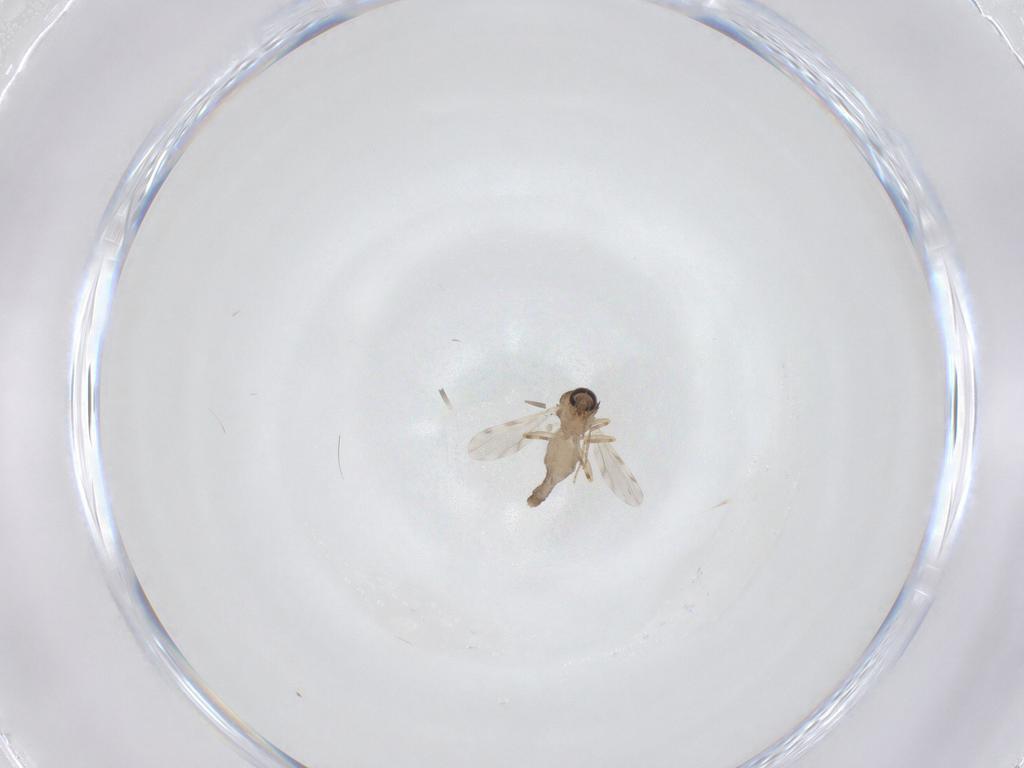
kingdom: Animalia
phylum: Arthropoda
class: Insecta
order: Diptera
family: Ceratopogonidae
